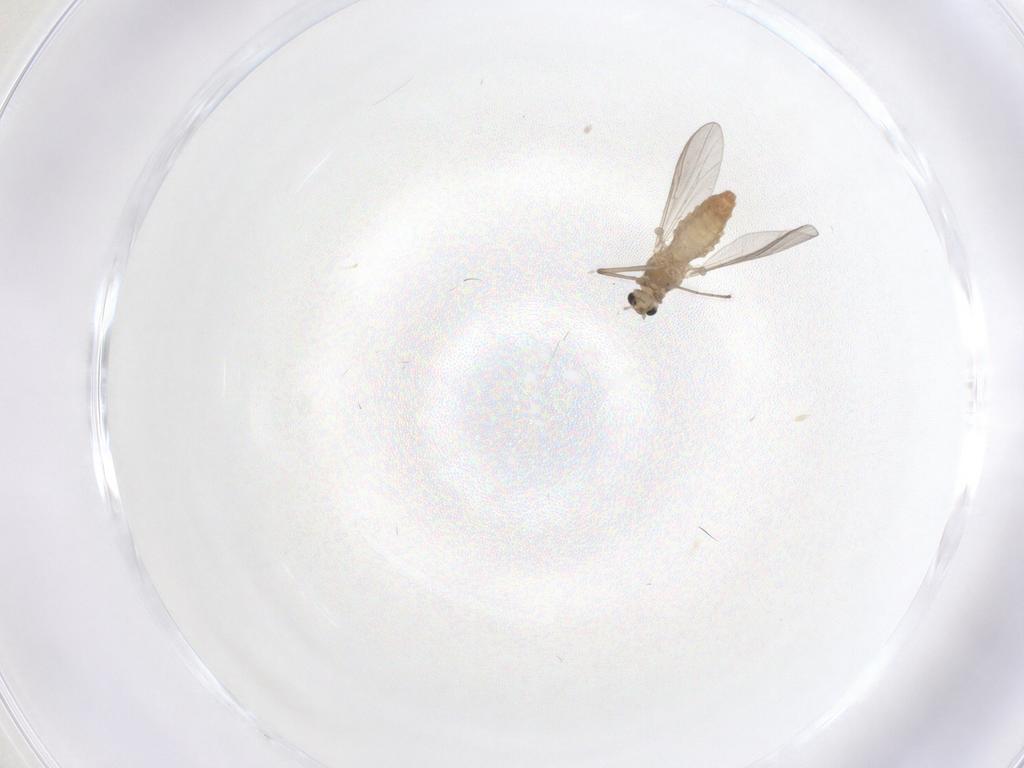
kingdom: Animalia
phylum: Arthropoda
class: Insecta
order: Diptera
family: Chironomidae
